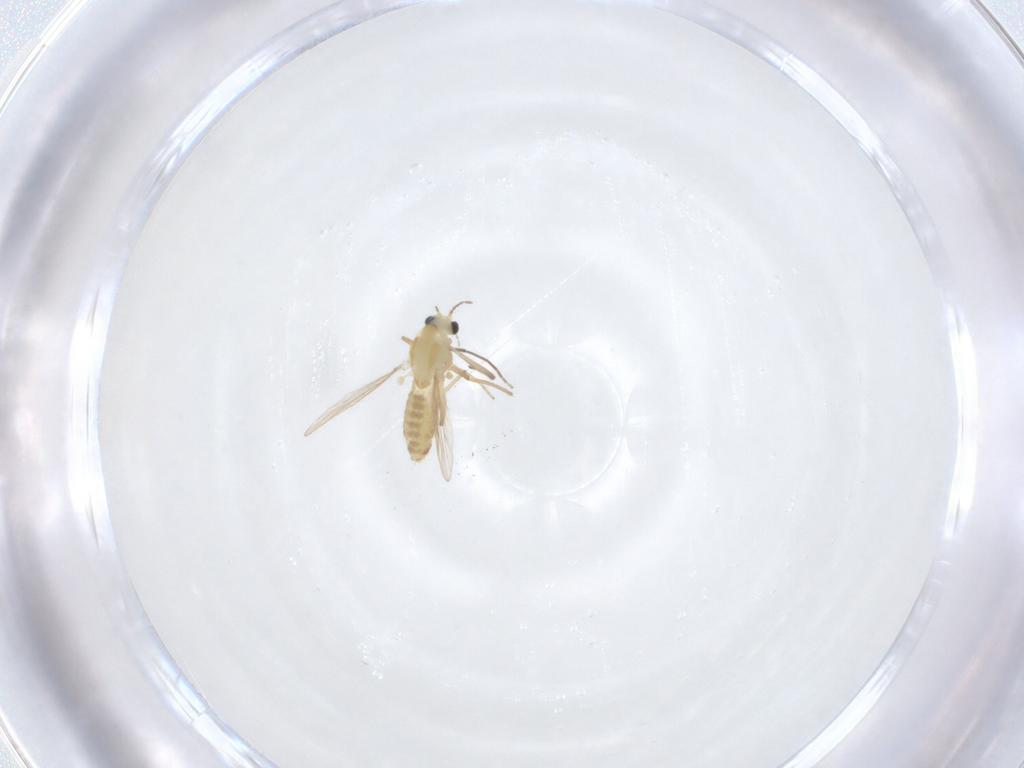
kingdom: Animalia
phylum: Arthropoda
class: Insecta
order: Diptera
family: Chironomidae
